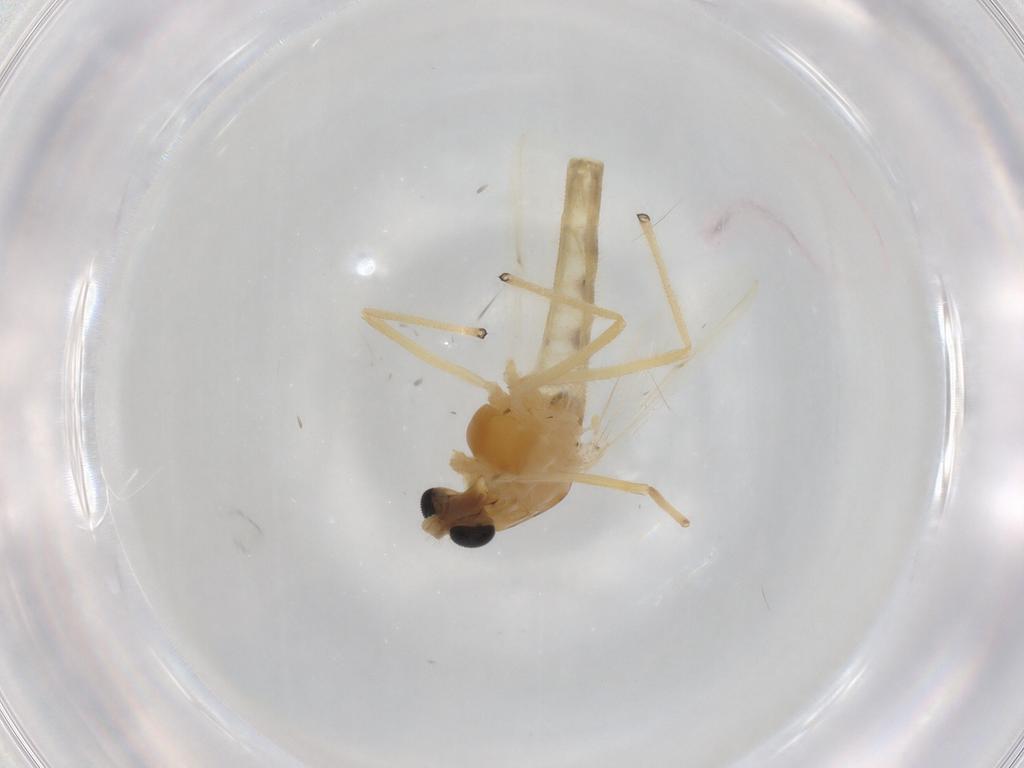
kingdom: Animalia
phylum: Arthropoda
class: Insecta
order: Diptera
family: Chironomidae
